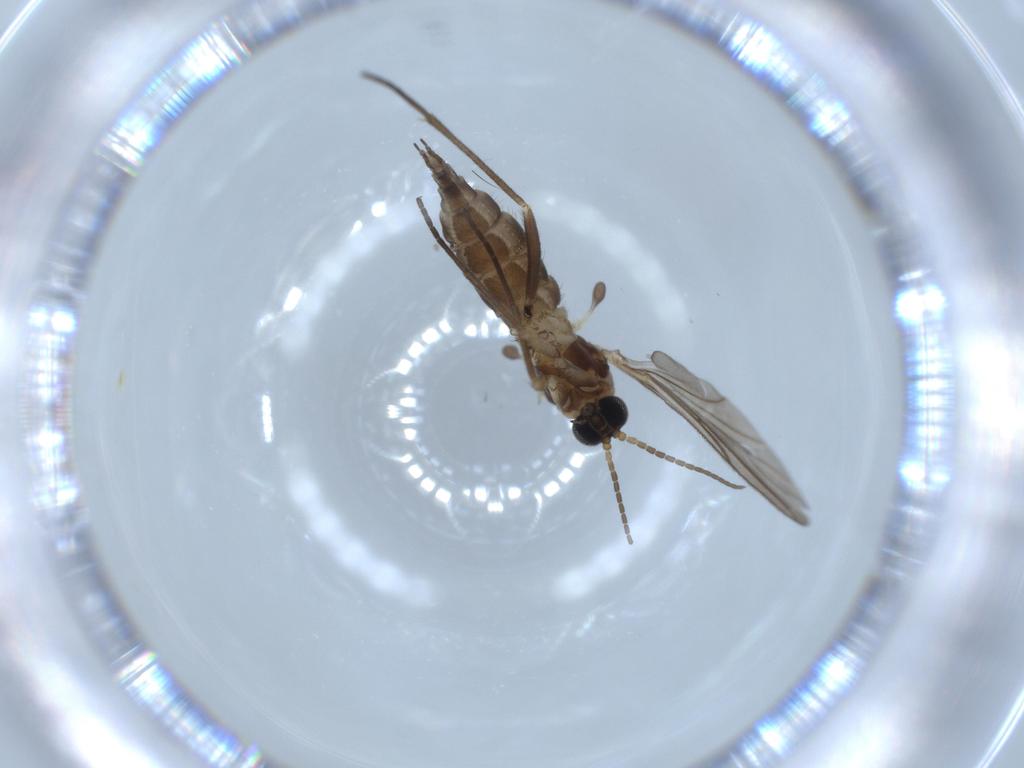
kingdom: Animalia
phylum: Arthropoda
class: Insecta
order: Diptera
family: Sciaridae
